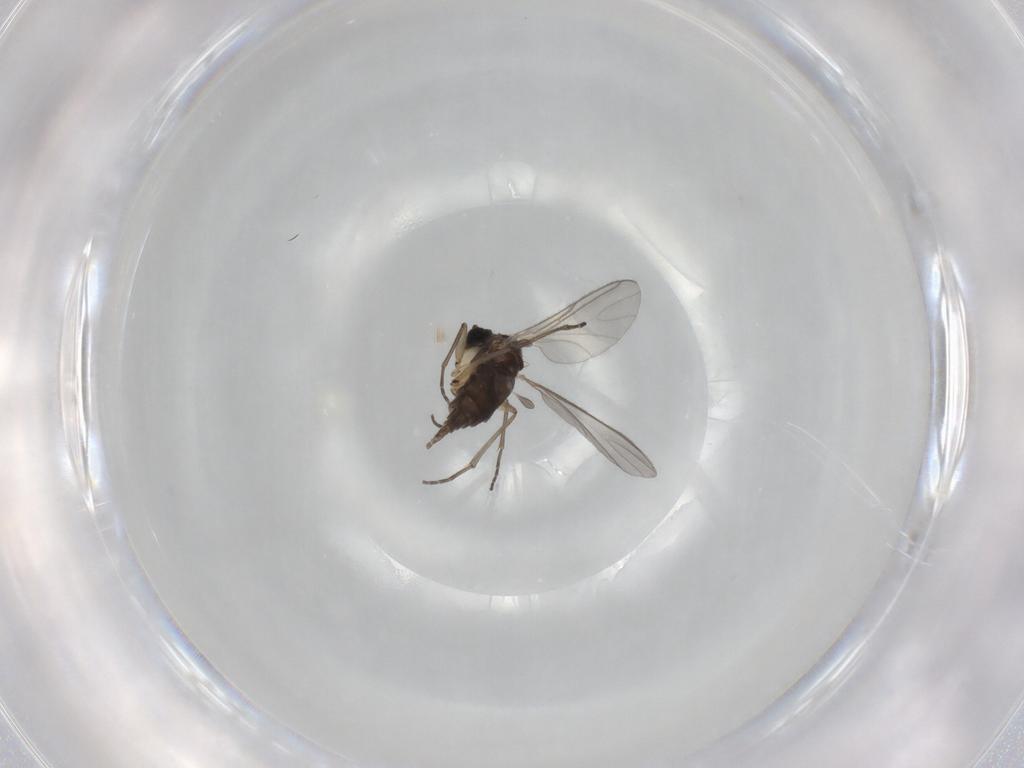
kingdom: Animalia
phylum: Arthropoda
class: Insecta
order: Diptera
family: Sciaridae
